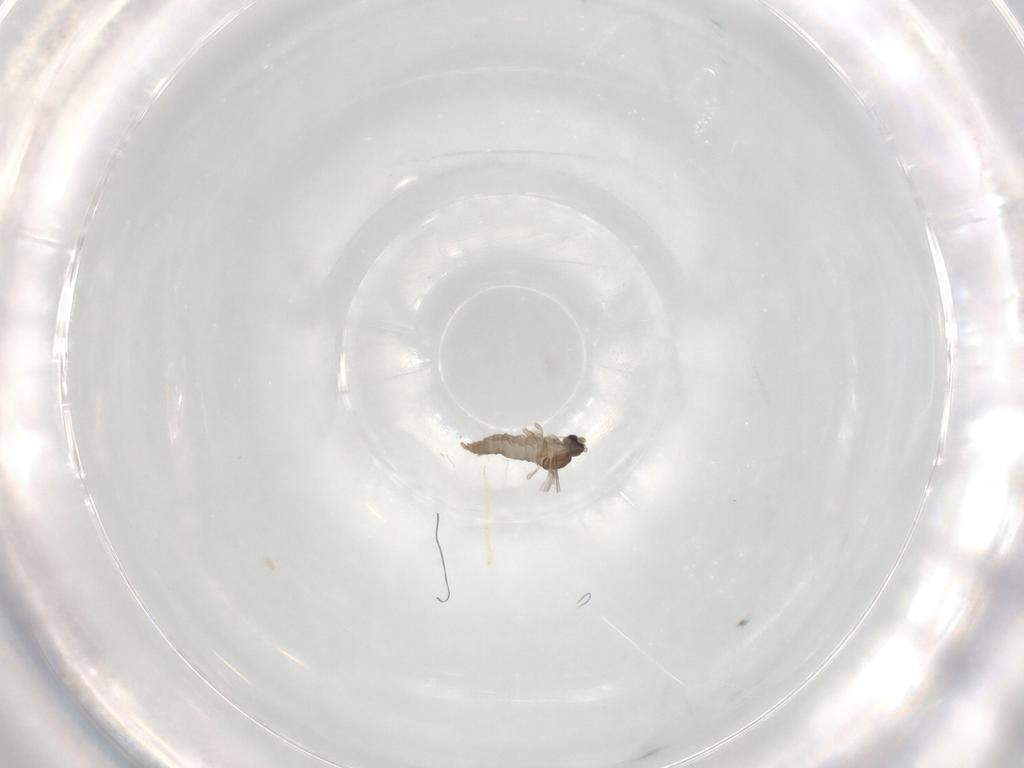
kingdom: Animalia
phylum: Arthropoda
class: Insecta
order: Diptera
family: Cecidomyiidae
